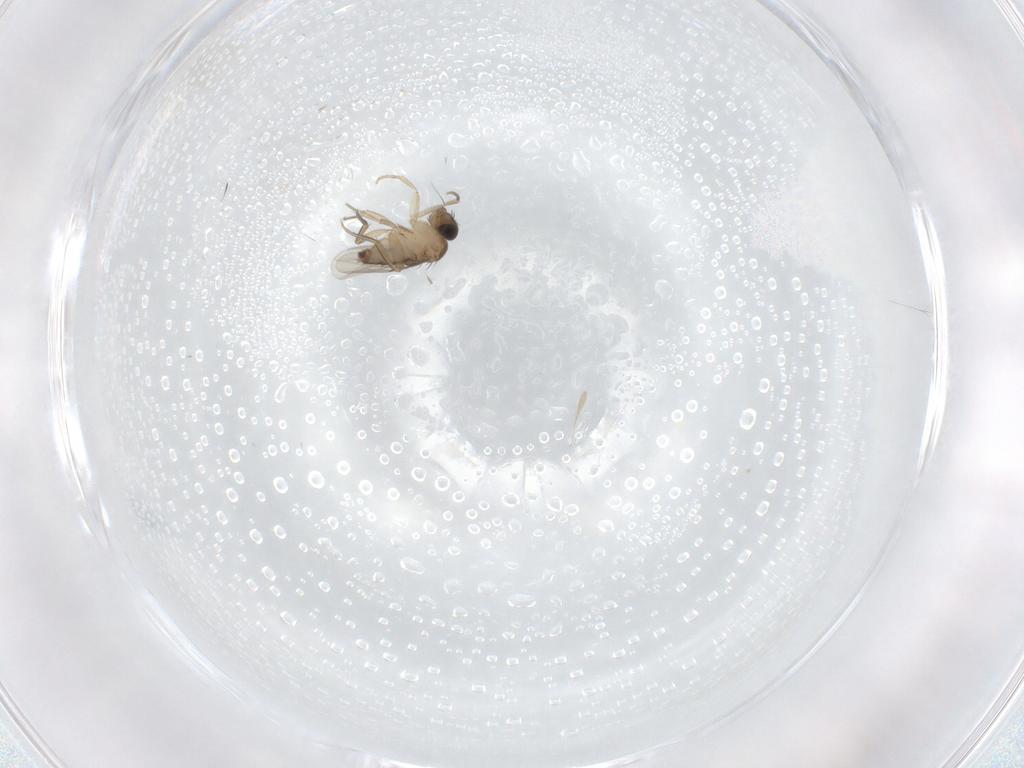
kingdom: Animalia
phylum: Arthropoda
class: Insecta
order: Diptera
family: Phoridae
